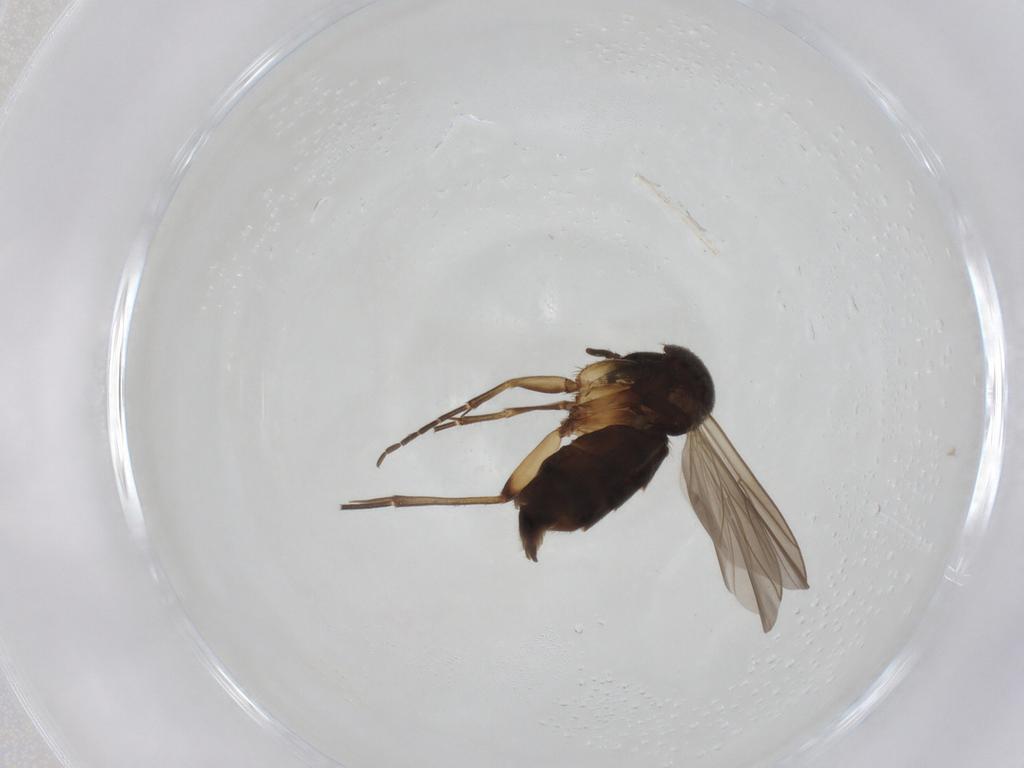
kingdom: Animalia
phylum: Arthropoda
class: Insecta
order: Diptera
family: Mycetophilidae
